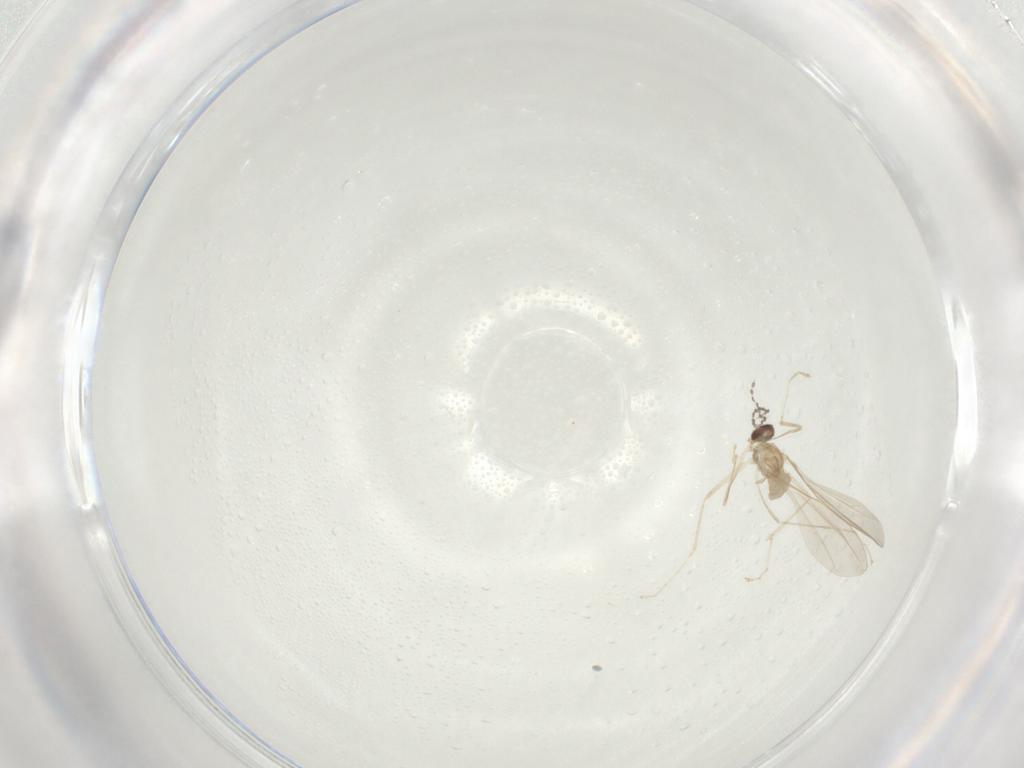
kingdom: Animalia
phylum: Arthropoda
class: Insecta
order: Diptera
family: Cecidomyiidae
